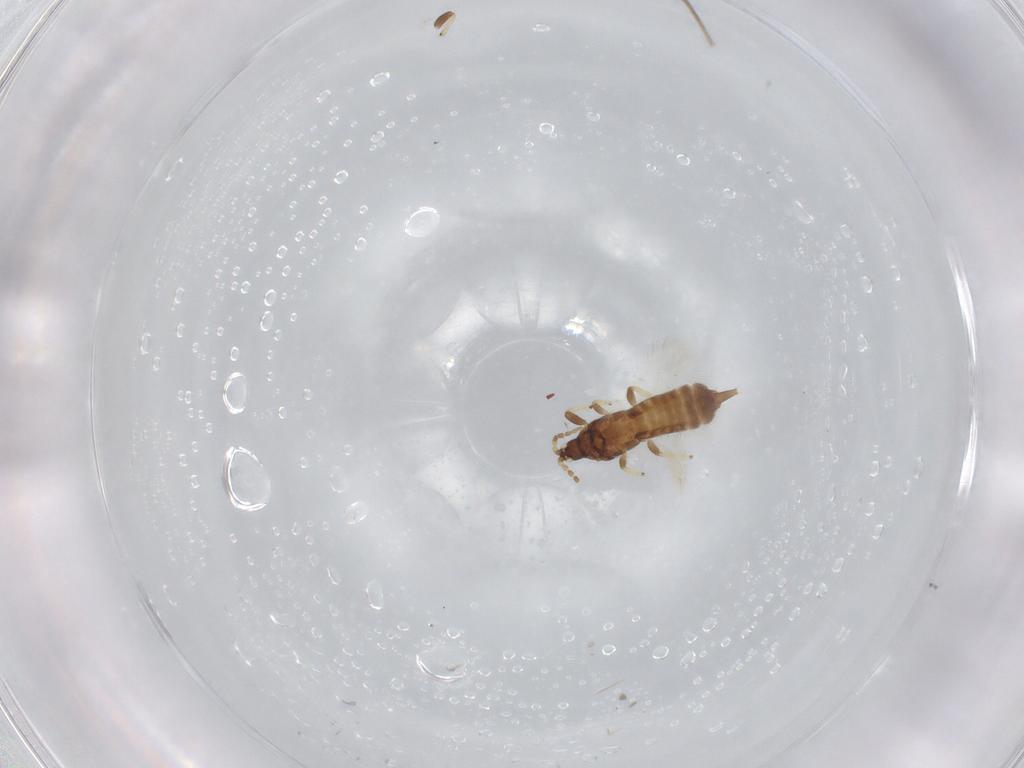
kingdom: Animalia
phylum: Arthropoda
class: Insecta
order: Thysanoptera
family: Phlaeothripidae
